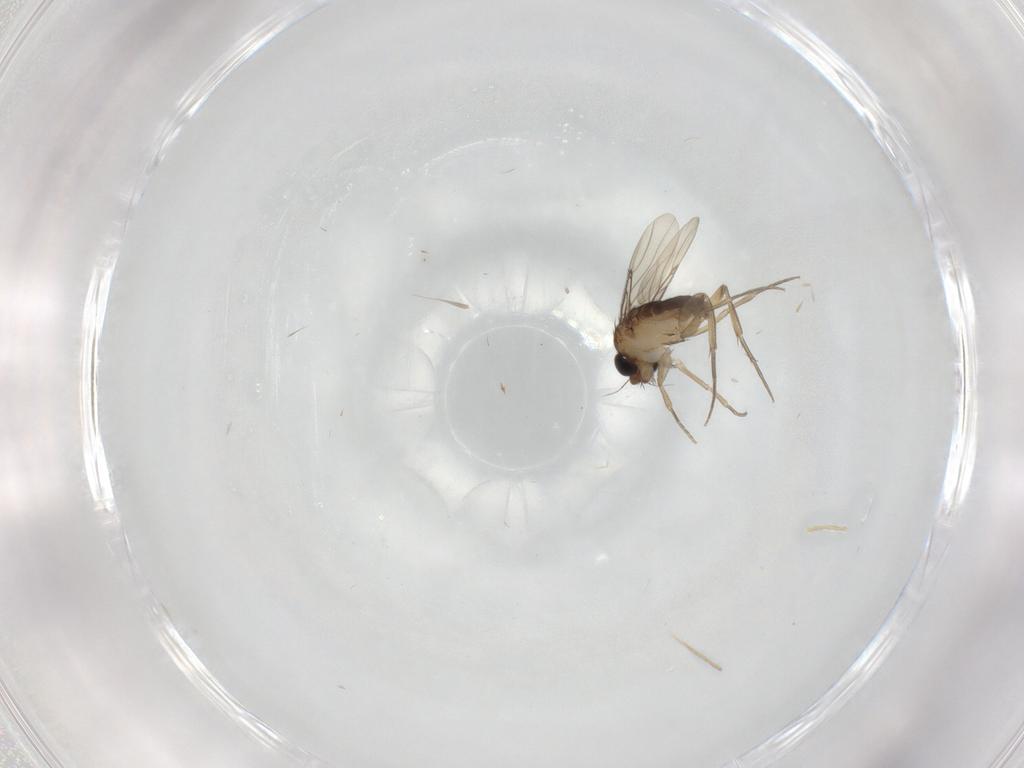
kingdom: Animalia
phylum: Arthropoda
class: Insecta
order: Diptera
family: Phoridae
